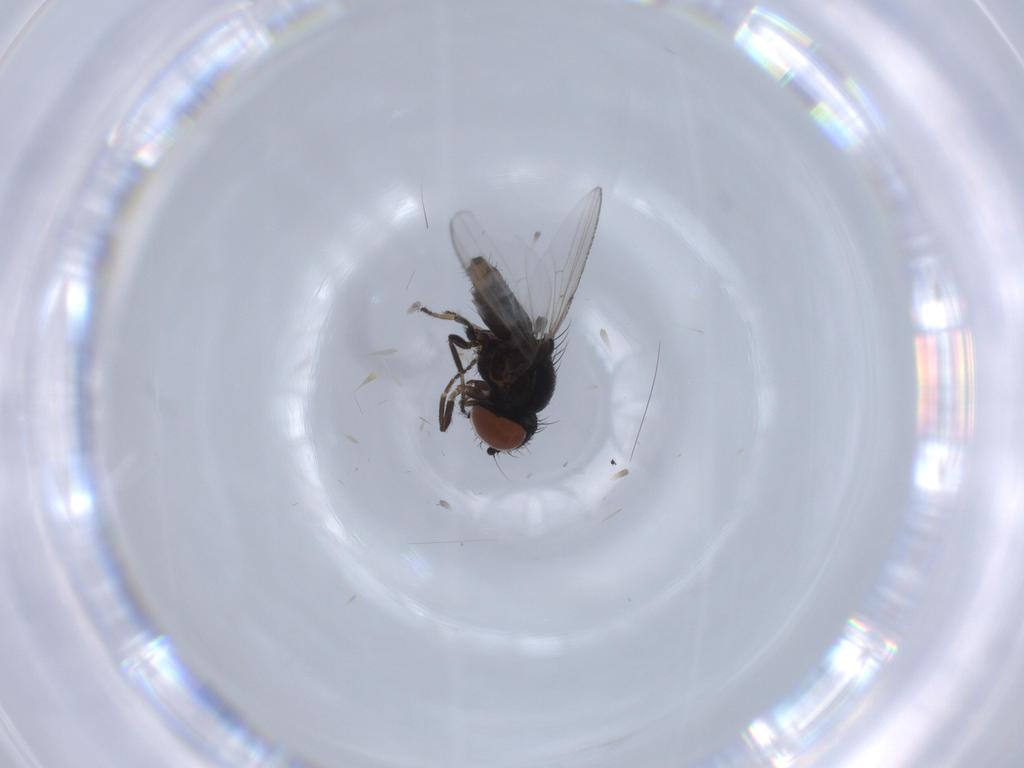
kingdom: Animalia
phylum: Arthropoda
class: Insecta
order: Diptera
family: Milichiidae
